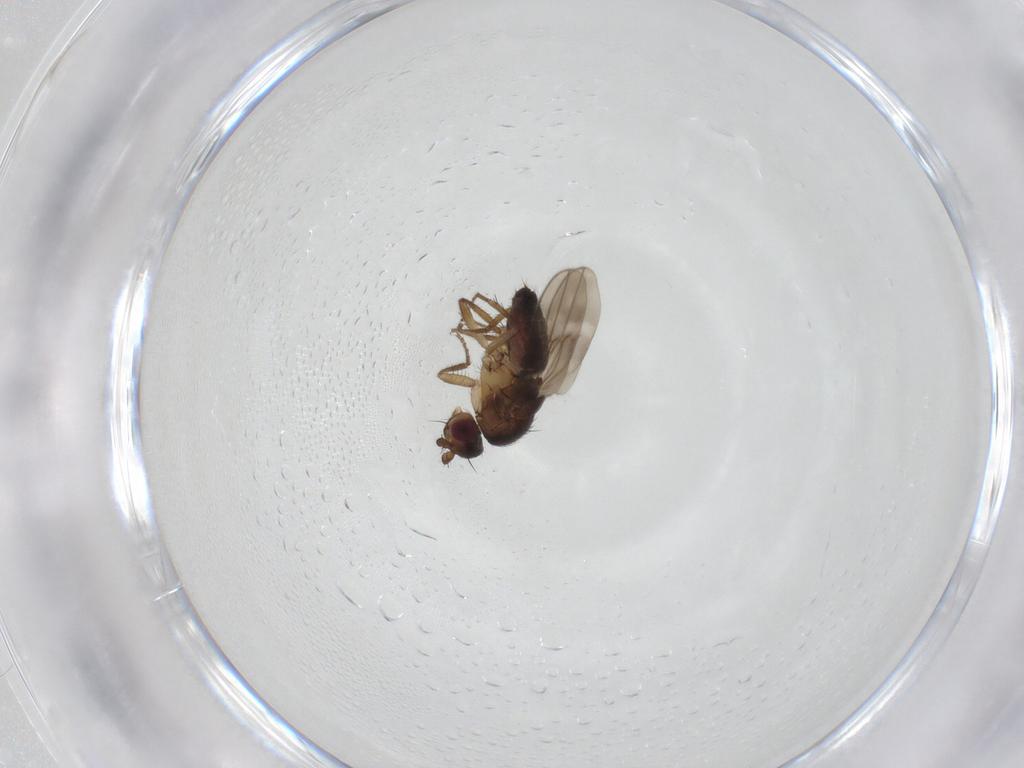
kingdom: Animalia
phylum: Arthropoda
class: Insecta
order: Diptera
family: Sphaeroceridae
